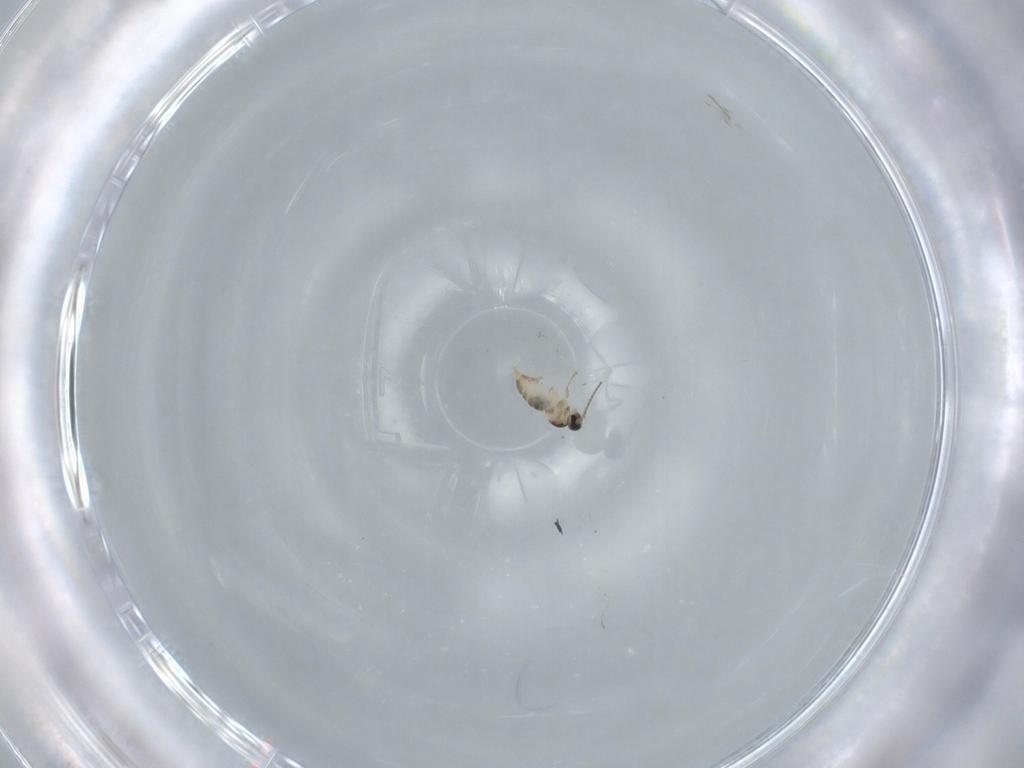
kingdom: Animalia
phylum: Arthropoda
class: Insecta
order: Diptera
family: Cecidomyiidae
